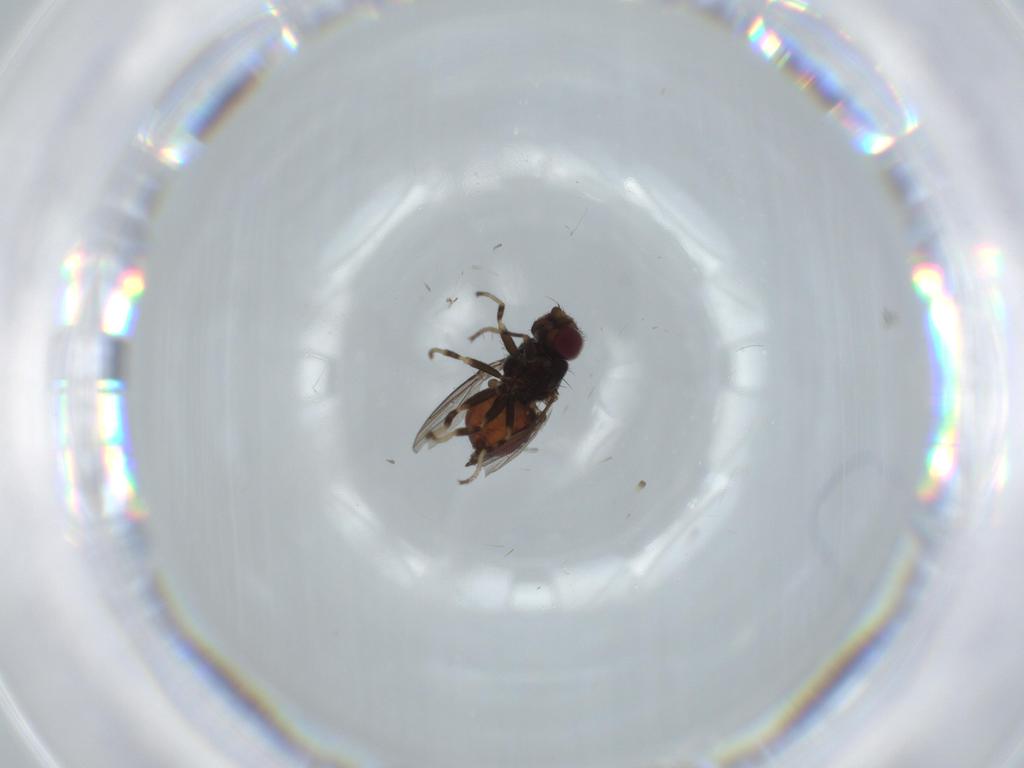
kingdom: Animalia
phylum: Arthropoda
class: Insecta
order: Diptera
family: Chloropidae
